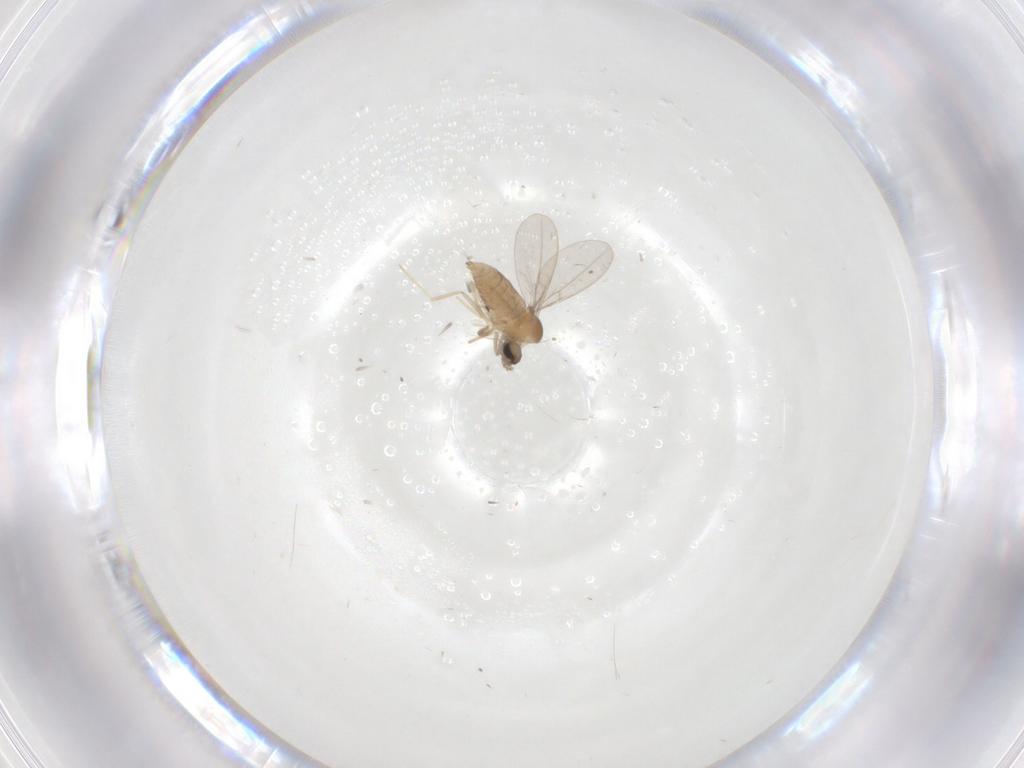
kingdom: Animalia
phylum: Arthropoda
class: Insecta
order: Diptera
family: Cecidomyiidae
